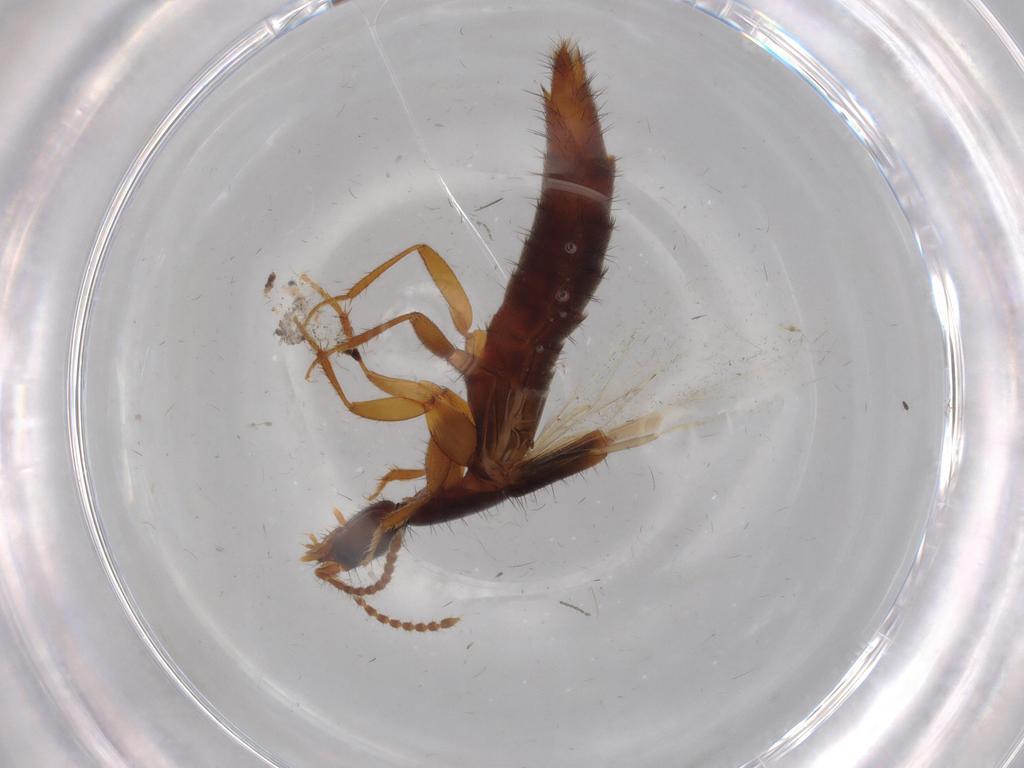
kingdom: Animalia
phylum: Arthropoda
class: Insecta
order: Coleoptera
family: Staphylinidae
